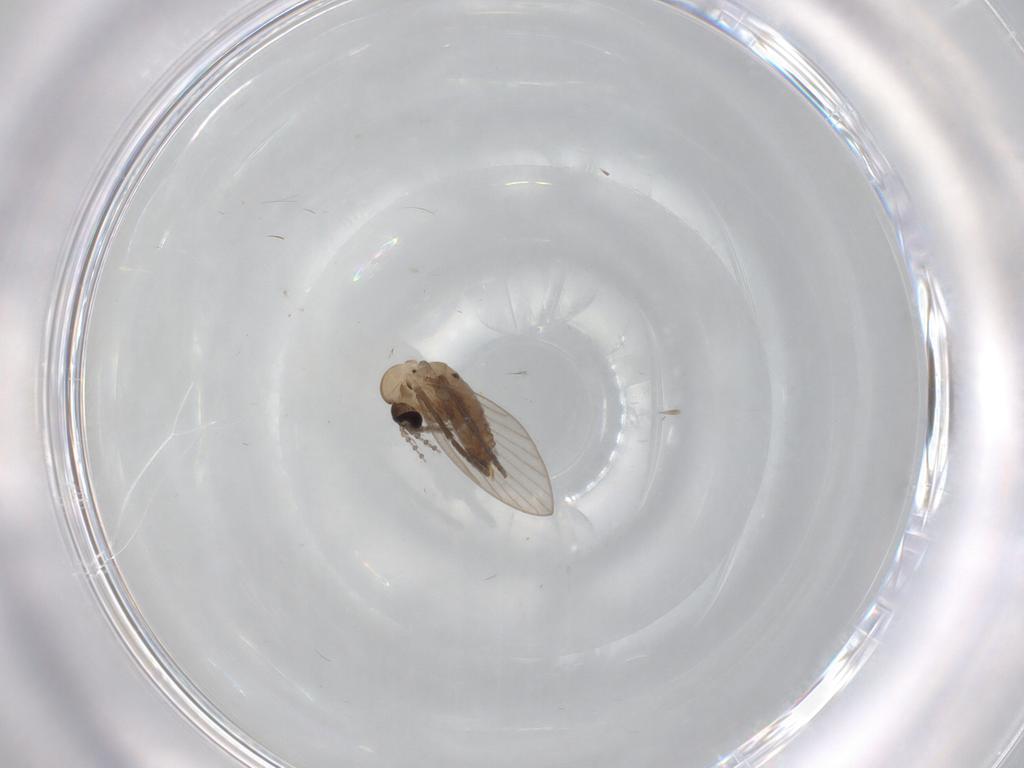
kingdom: Animalia
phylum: Arthropoda
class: Insecta
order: Diptera
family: Psychodidae
